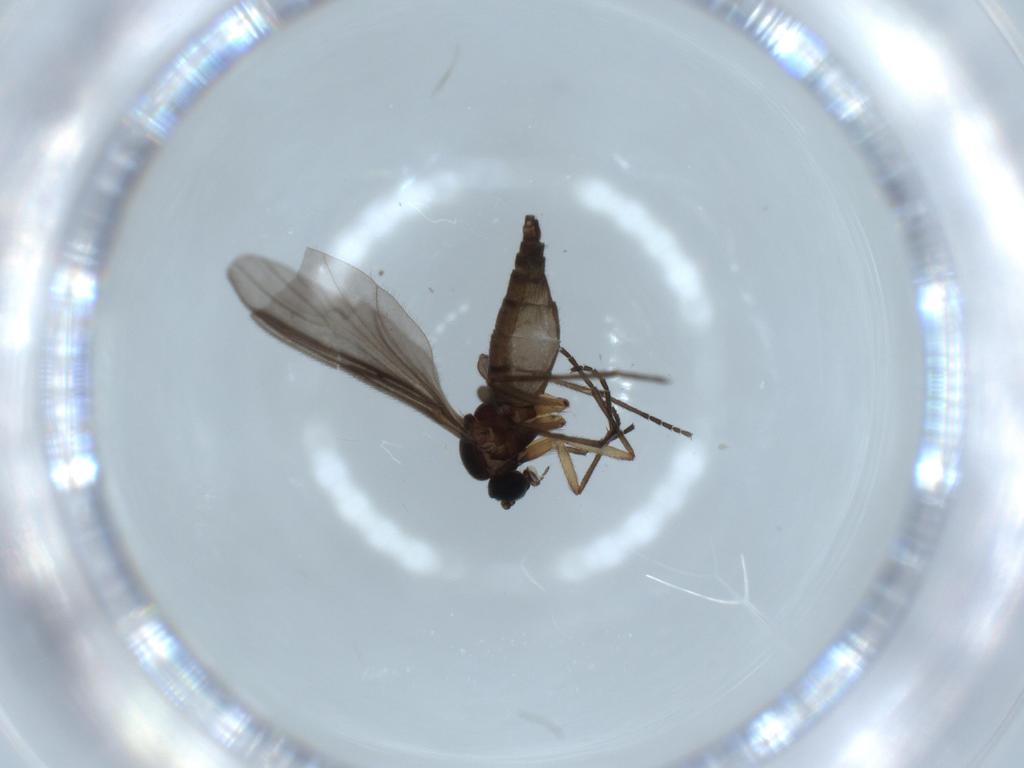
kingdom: Animalia
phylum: Arthropoda
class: Insecta
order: Diptera
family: Sciaridae
